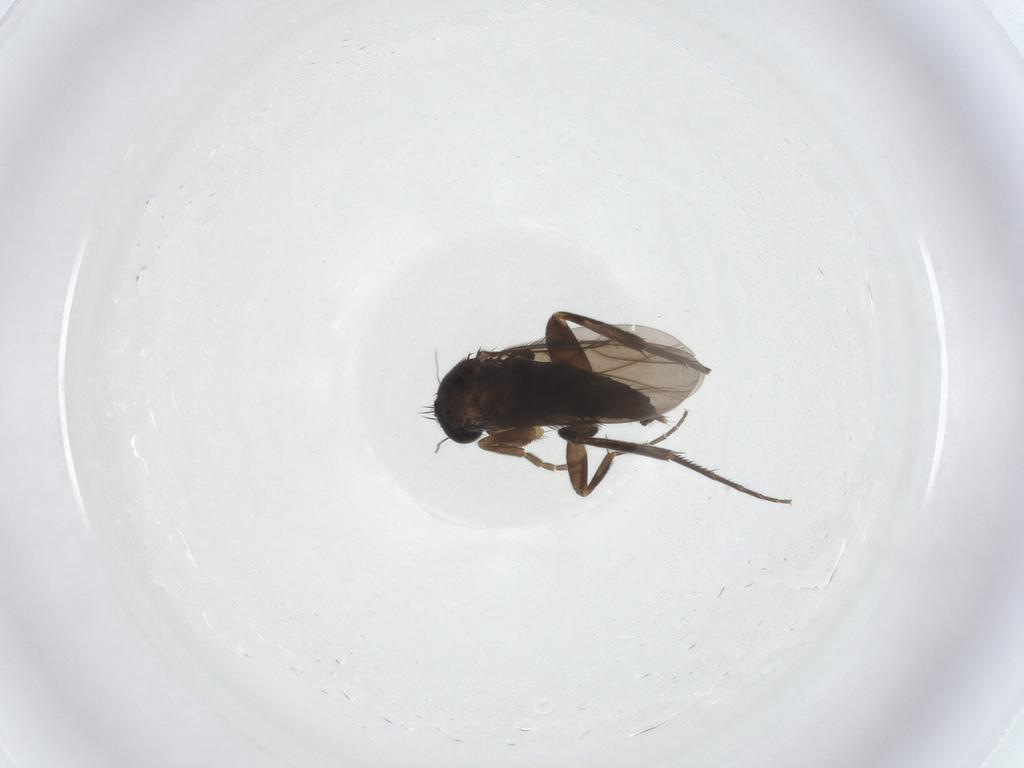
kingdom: Animalia
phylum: Arthropoda
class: Insecta
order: Diptera
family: Phoridae
